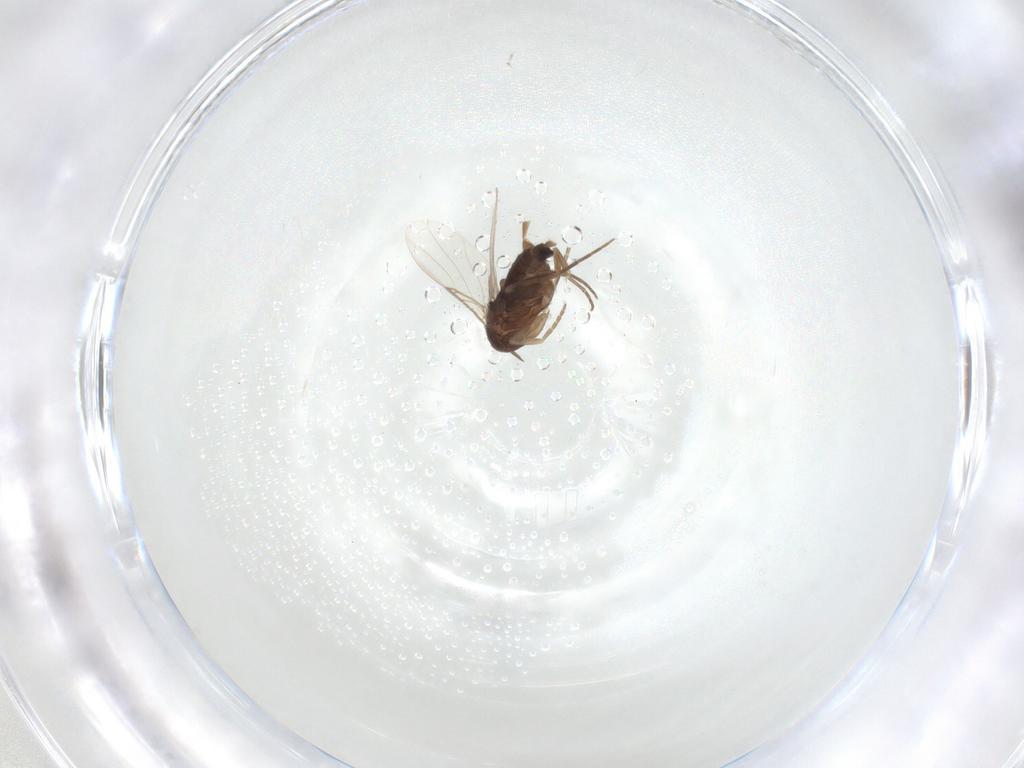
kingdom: Animalia
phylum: Arthropoda
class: Insecta
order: Diptera
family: Phoridae
